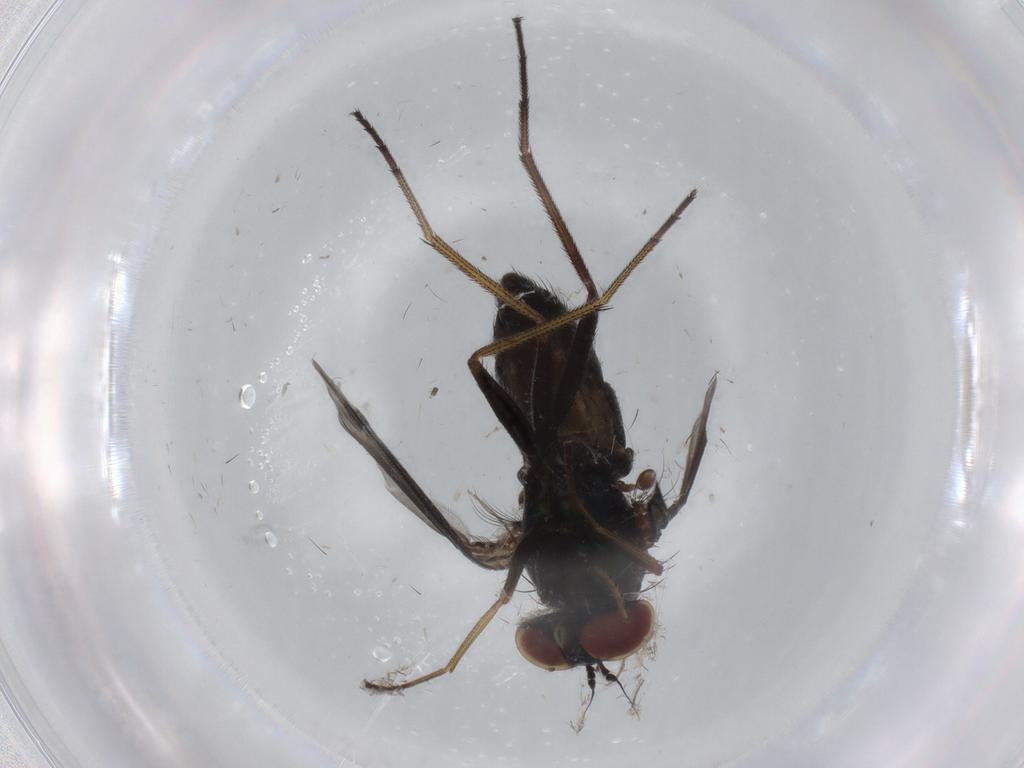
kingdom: Animalia
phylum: Arthropoda
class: Insecta
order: Diptera
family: Dolichopodidae
